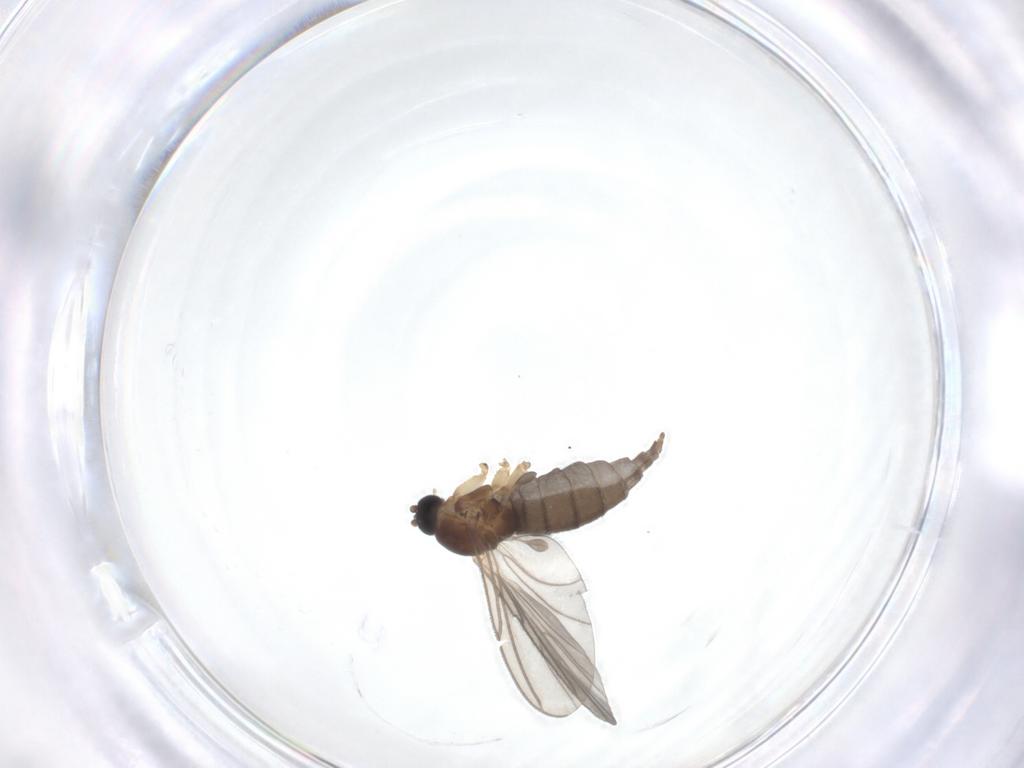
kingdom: Animalia
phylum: Arthropoda
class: Insecta
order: Diptera
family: Sciaridae
